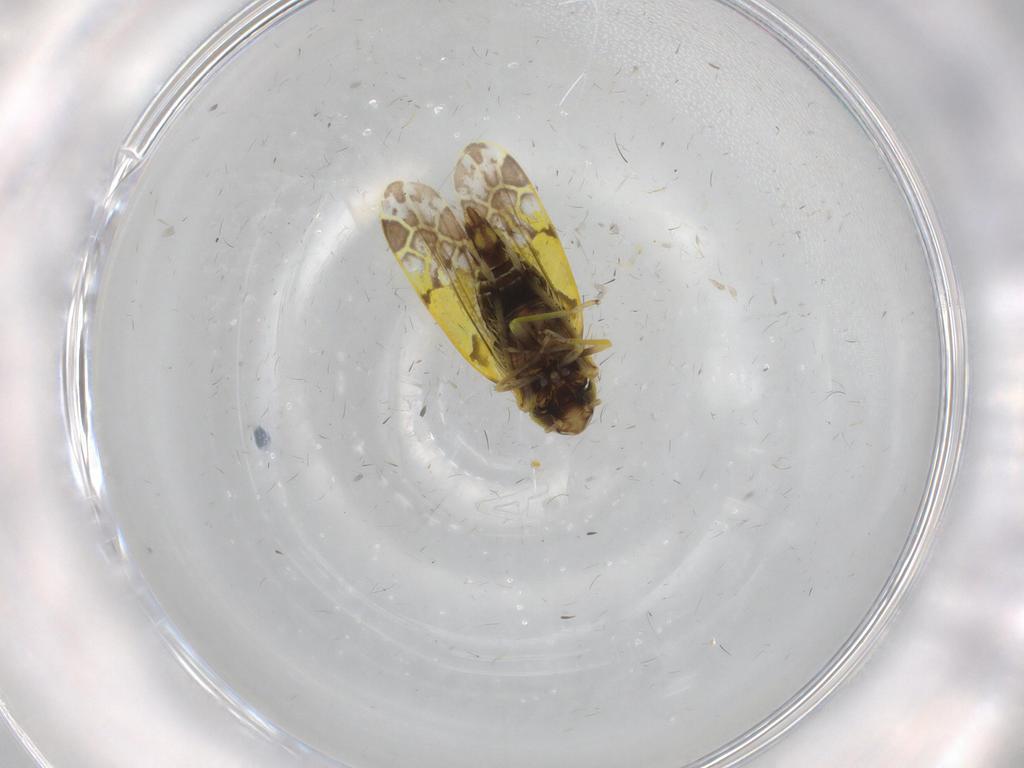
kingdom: Animalia
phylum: Arthropoda
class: Insecta
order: Hemiptera
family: Cicadellidae
